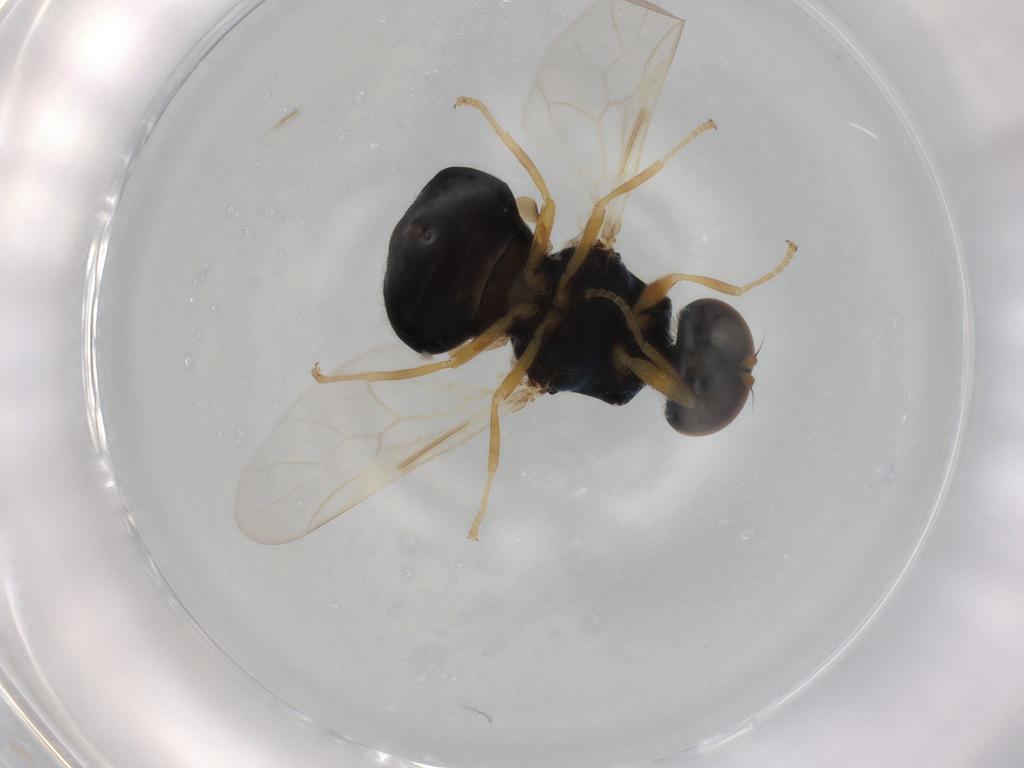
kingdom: Animalia
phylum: Arthropoda
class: Insecta
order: Diptera
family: Stratiomyidae
